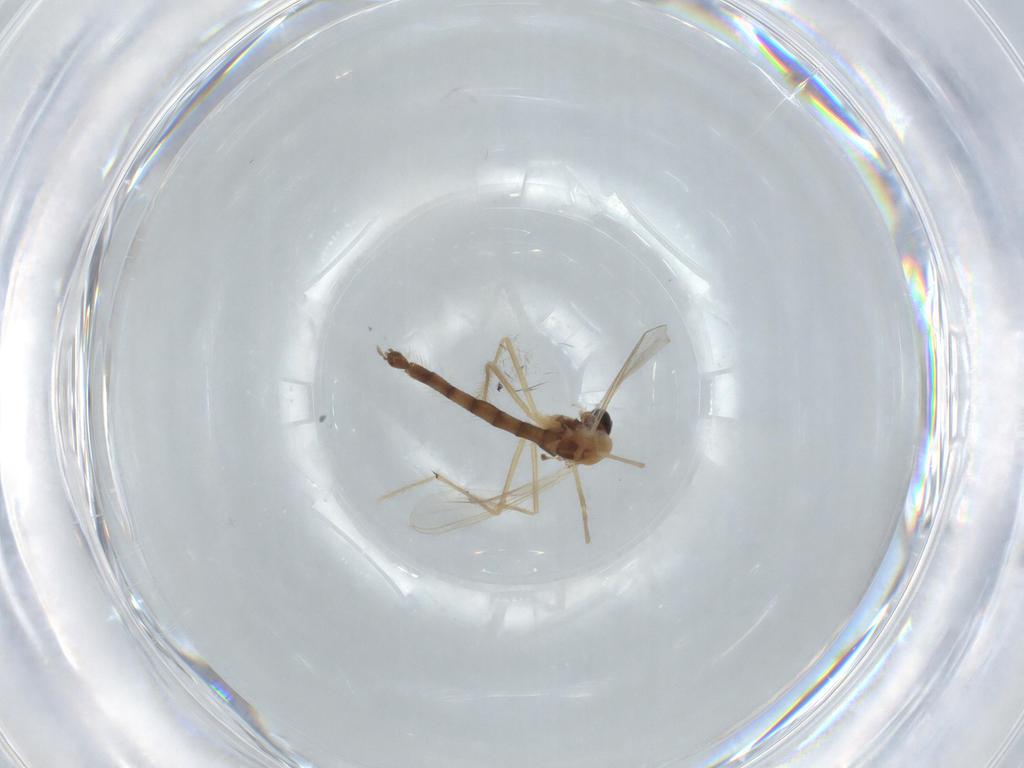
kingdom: Animalia
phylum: Arthropoda
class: Insecta
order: Diptera
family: Chironomidae
